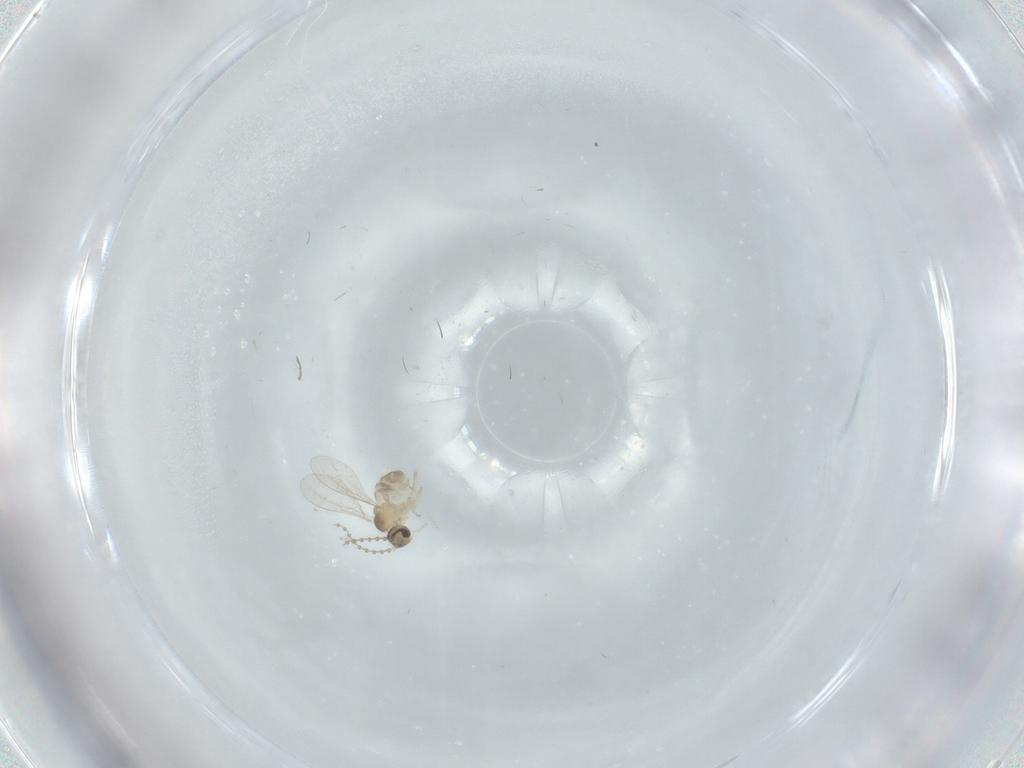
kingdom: Animalia
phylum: Arthropoda
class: Insecta
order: Diptera
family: Cecidomyiidae
